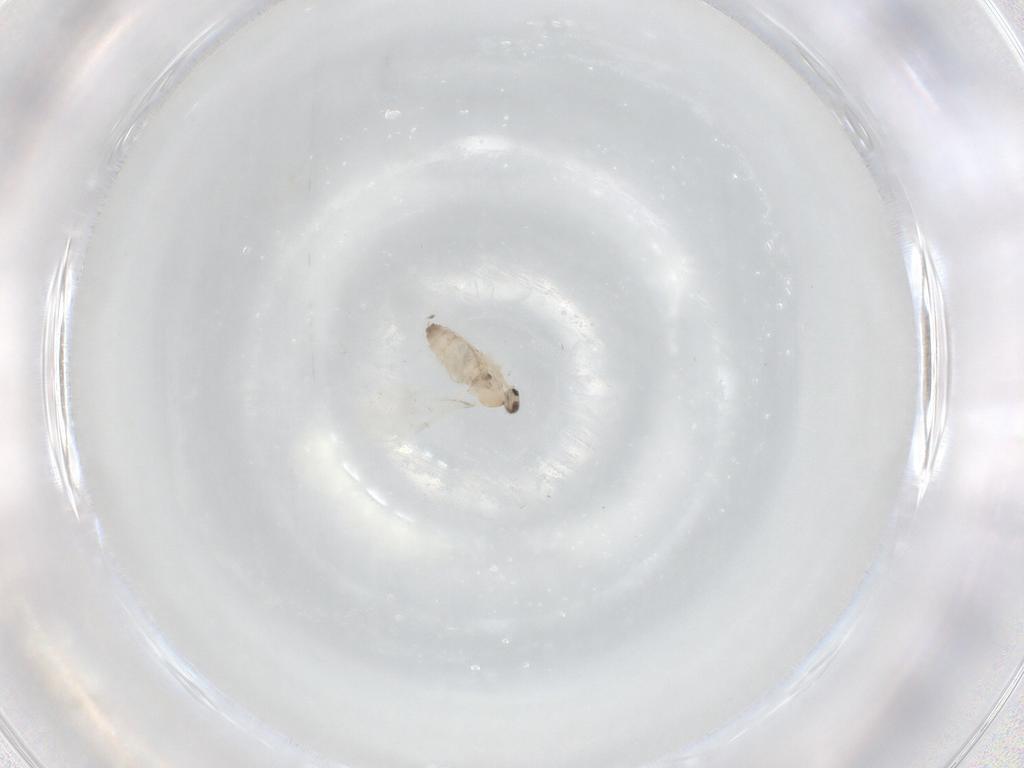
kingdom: Animalia
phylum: Arthropoda
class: Insecta
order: Diptera
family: Cecidomyiidae
